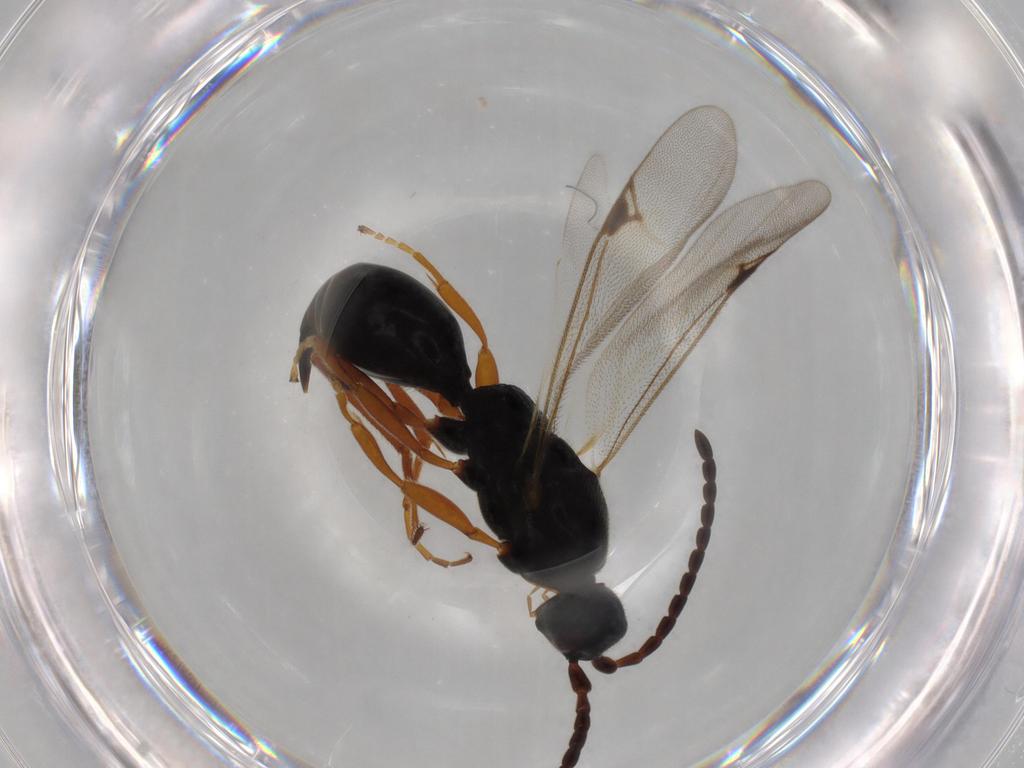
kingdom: Animalia
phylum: Arthropoda
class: Insecta
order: Hymenoptera
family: Proctotrupidae
